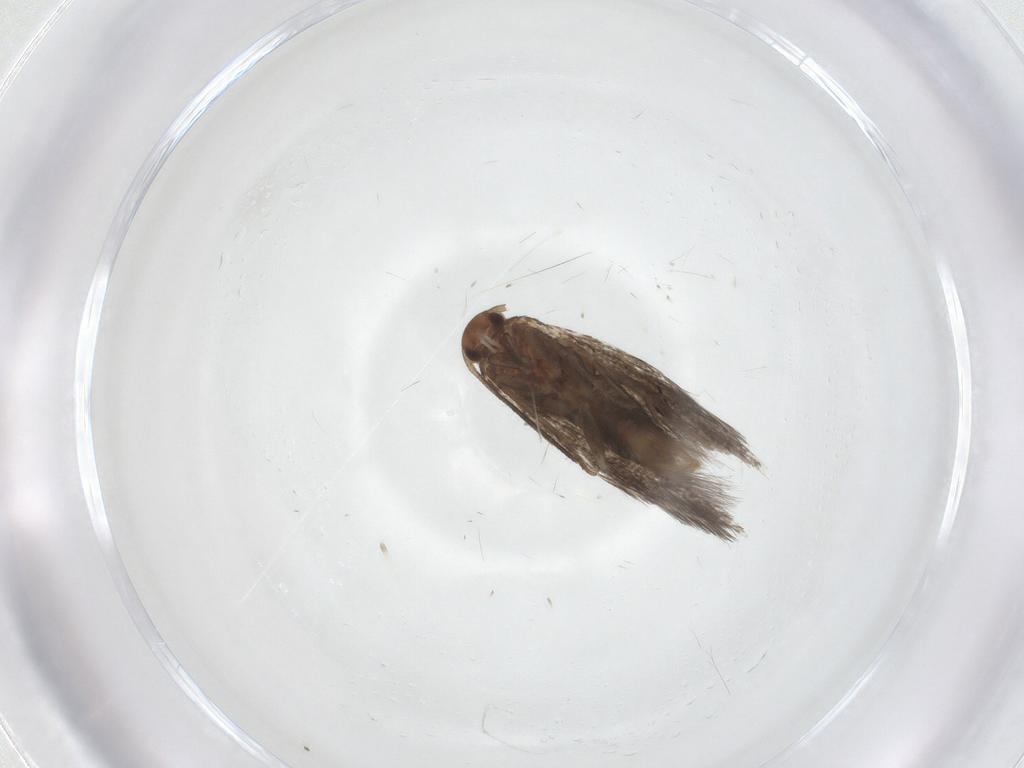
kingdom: Animalia
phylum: Arthropoda
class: Insecta
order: Lepidoptera
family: Elachistidae
